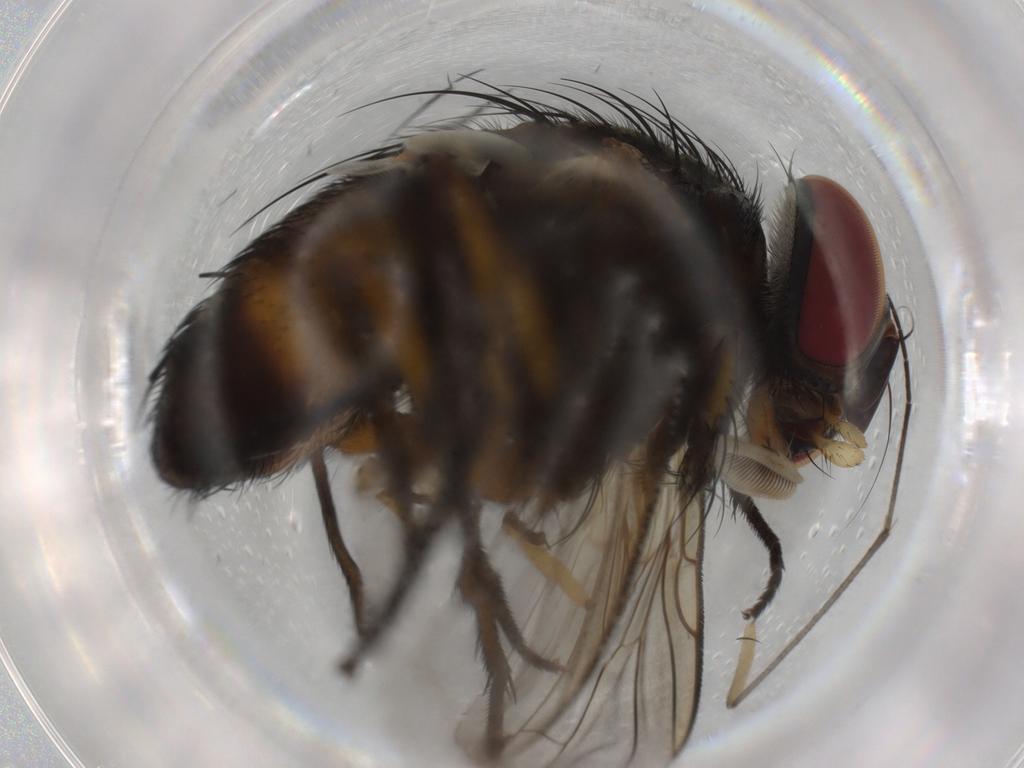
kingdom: Animalia
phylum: Arthropoda
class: Insecta
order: Diptera
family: Sciaridae
